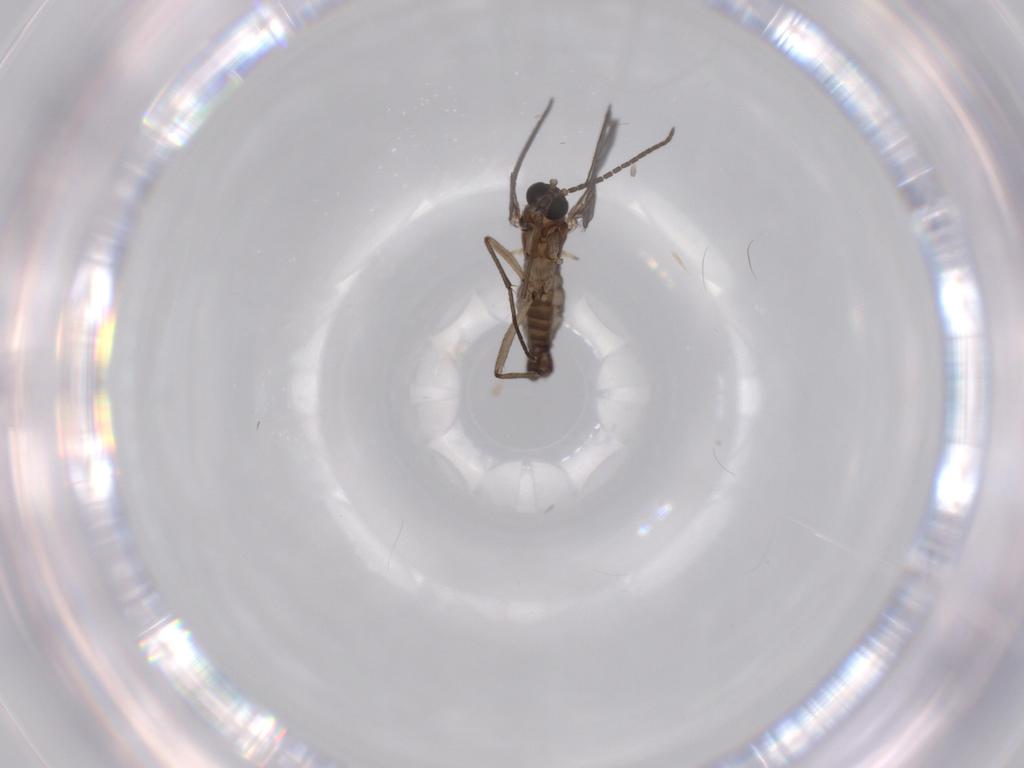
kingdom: Animalia
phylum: Arthropoda
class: Insecta
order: Diptera
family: Sciaridae
